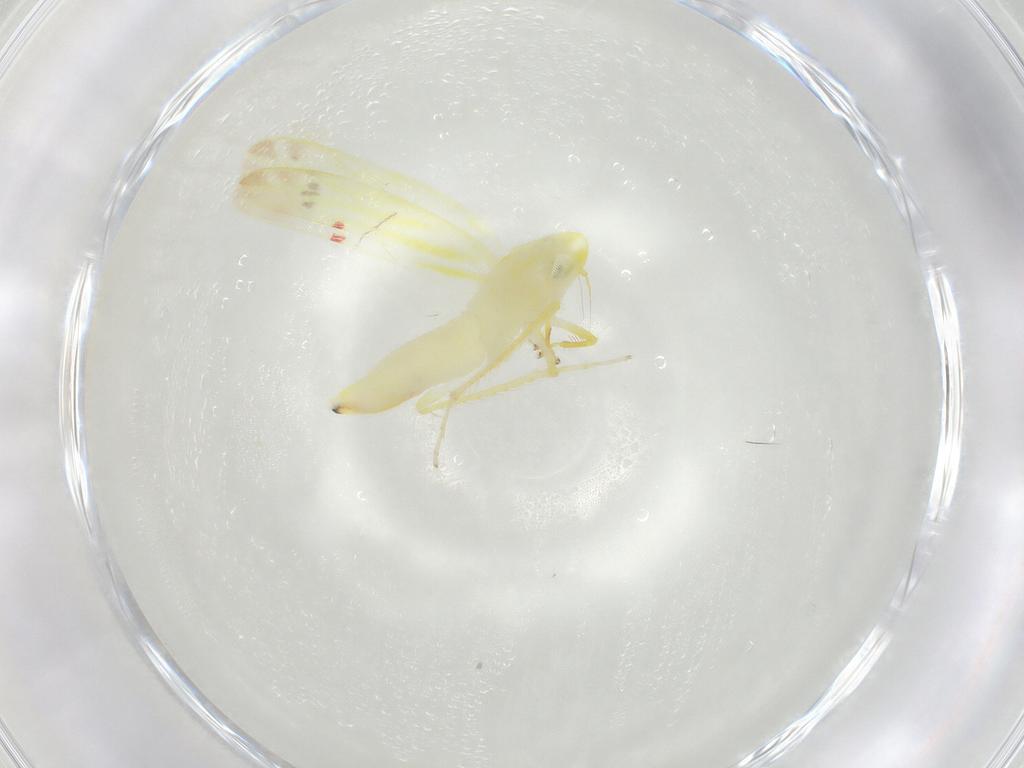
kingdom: Animalia
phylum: Arthropoda
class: Insecta
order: Hemiptera
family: Cicadellidae
